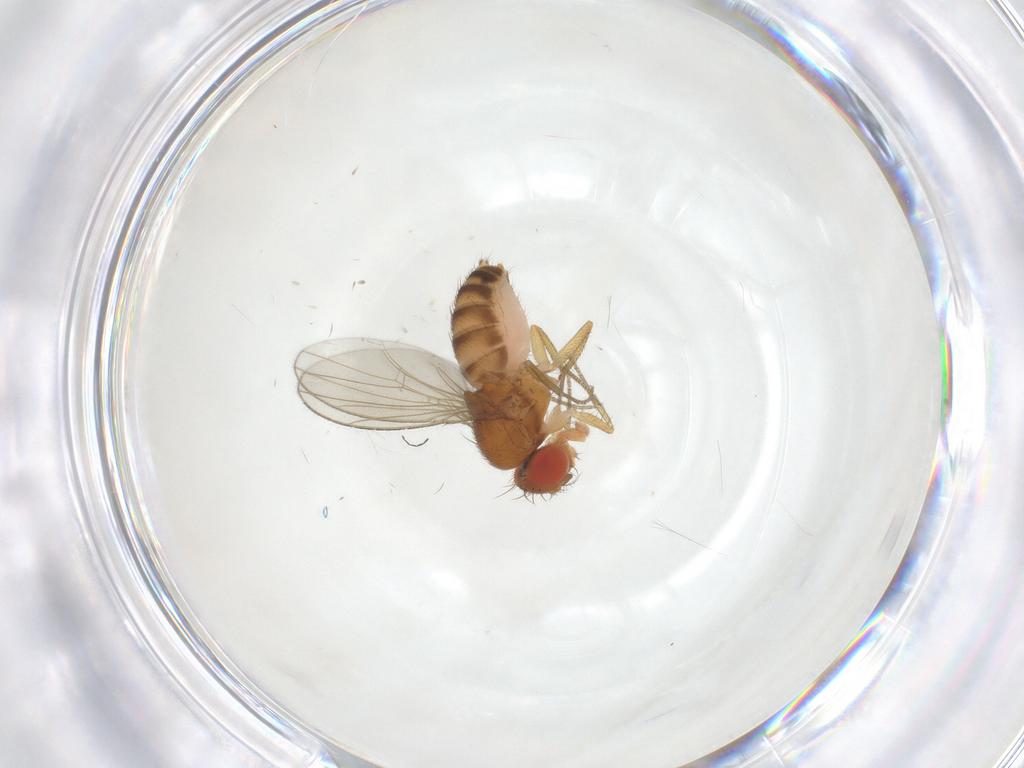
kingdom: Animalia
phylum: Arthropoda
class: Insecta
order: Diptera
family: Drosophilidae
